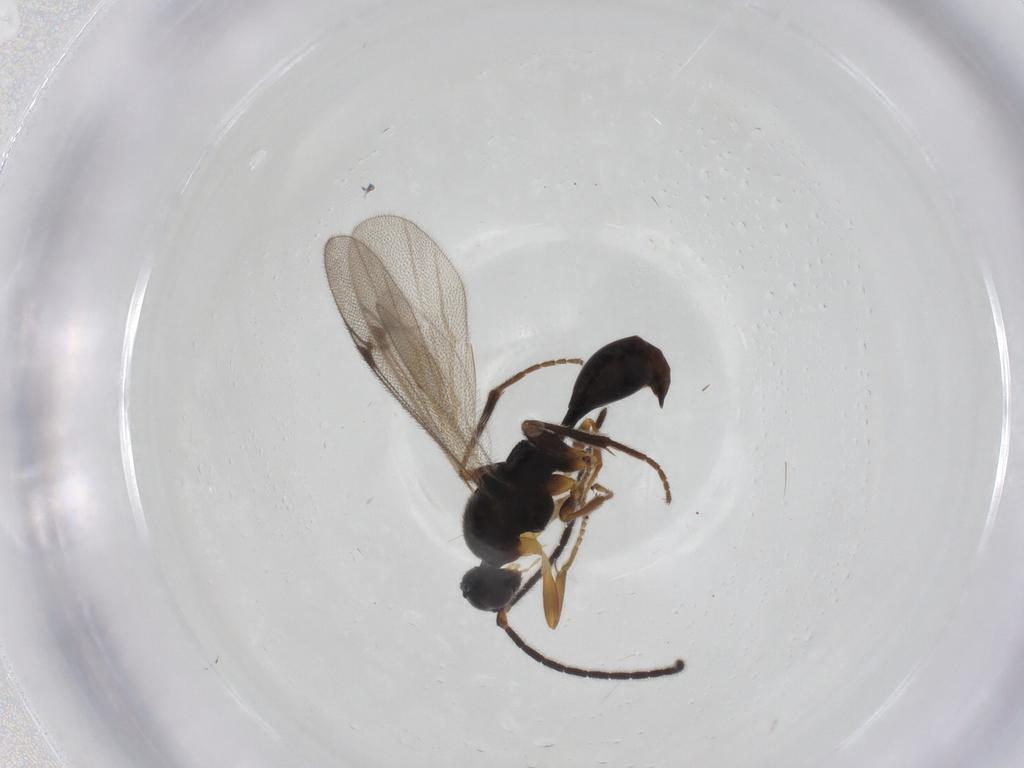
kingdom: Animalia
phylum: Arthropoda
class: Insecta
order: Hymenoptera
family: Proctotrupidae
